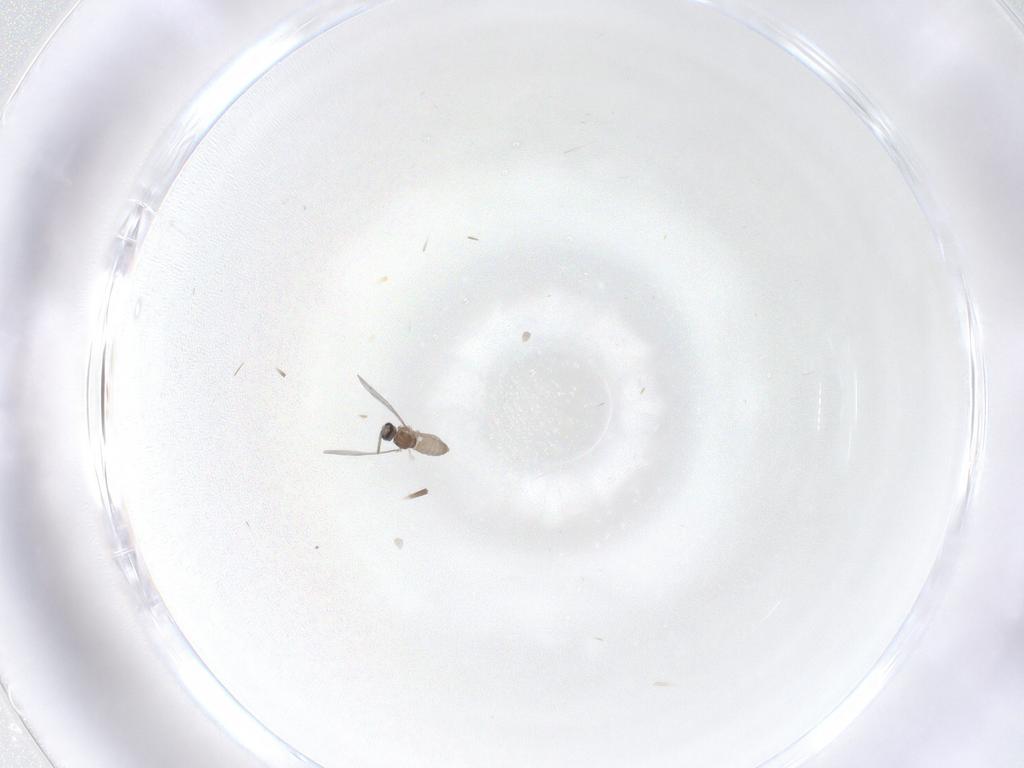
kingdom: Animalia
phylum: Arthropoda
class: Insecta
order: Diptera
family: Cecidomyiidae
